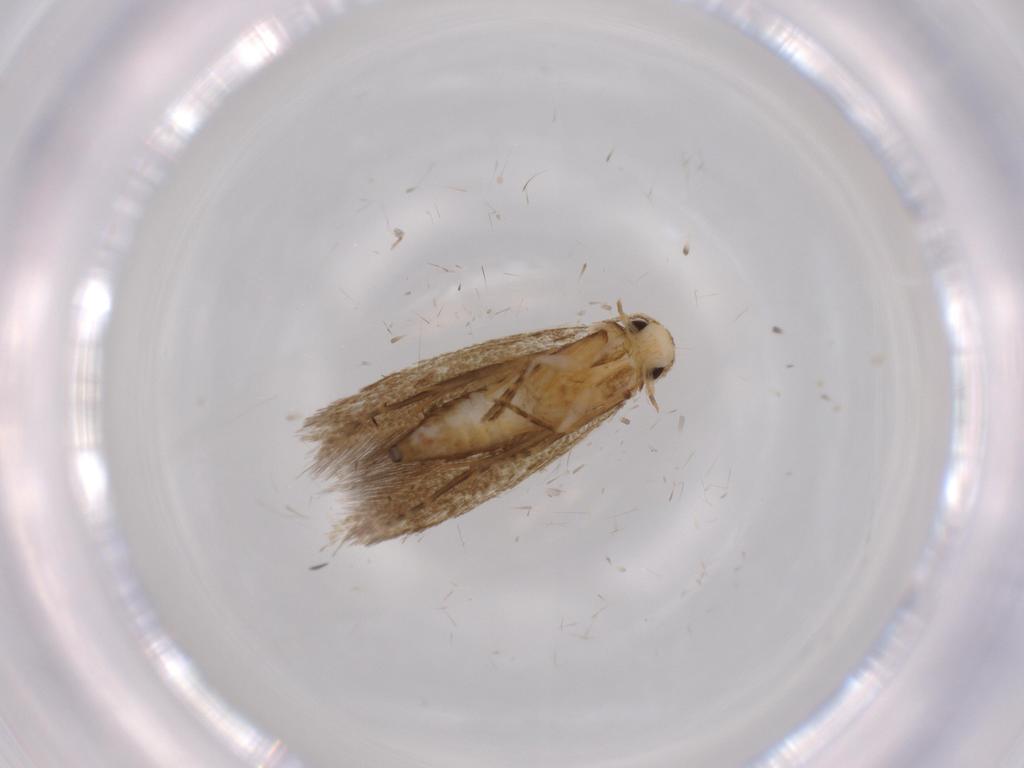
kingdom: Animalia
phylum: Arthropoda
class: Insecta
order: Lepidoptera
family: Tineidae
